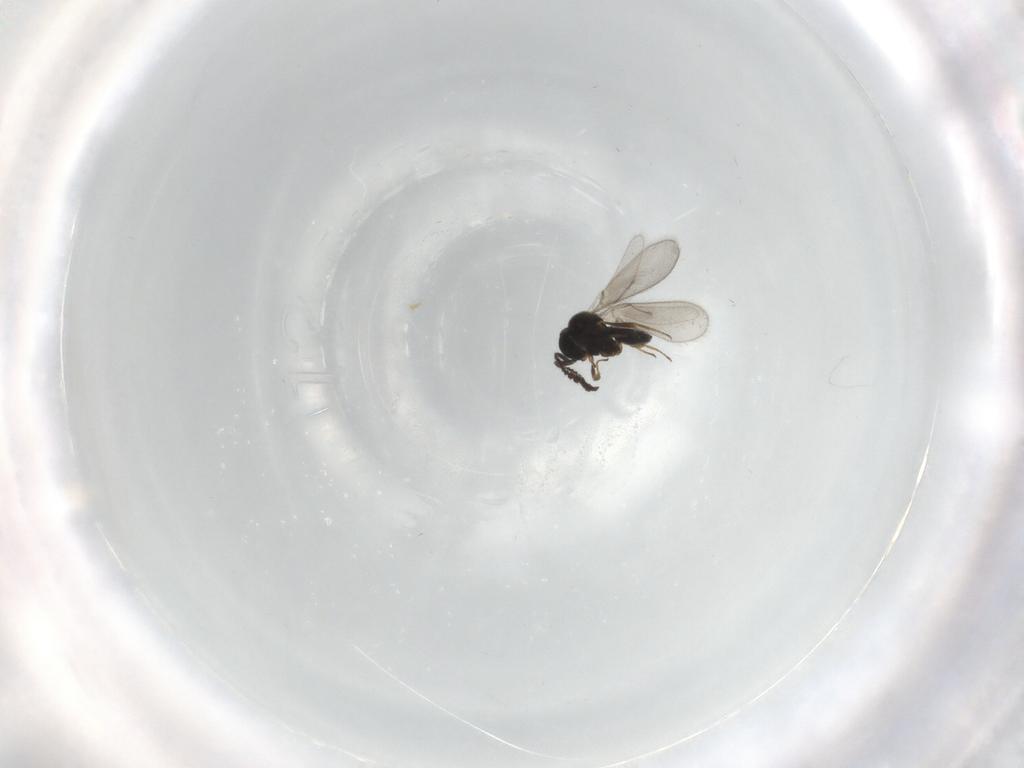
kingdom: Animalia
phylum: Arthropoda
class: Insecta
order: Hymenoptera
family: Scelionidae
